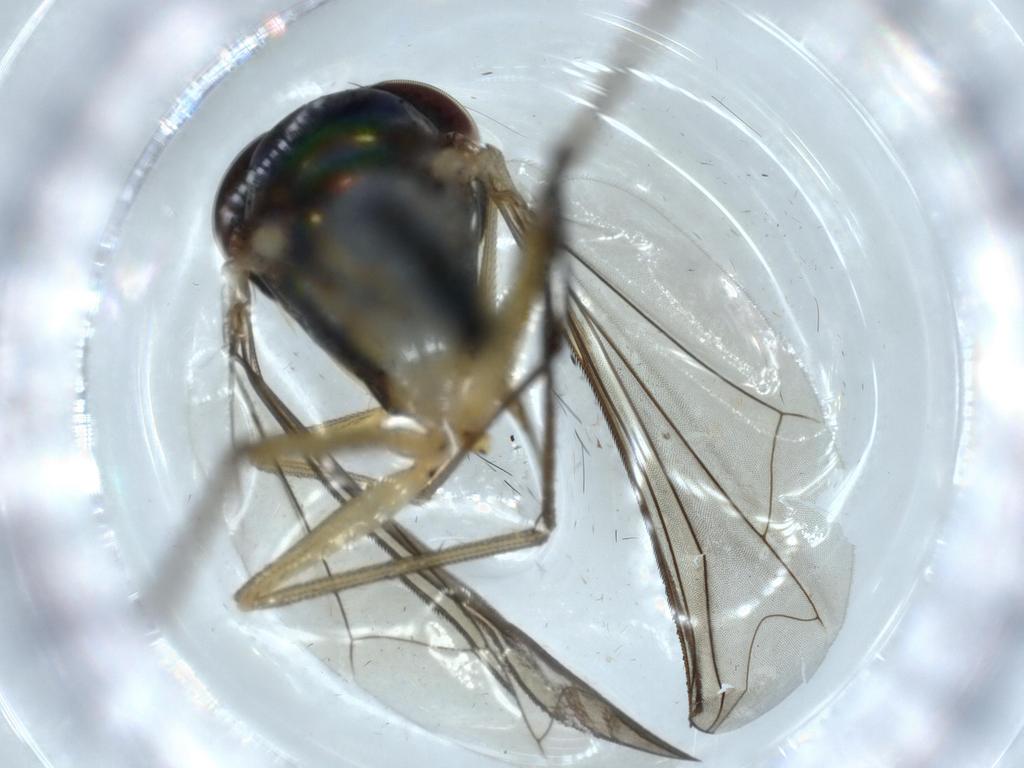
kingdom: Animalia
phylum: Arthropoda
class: Insecta
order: Diptera
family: Dolichopodidae
